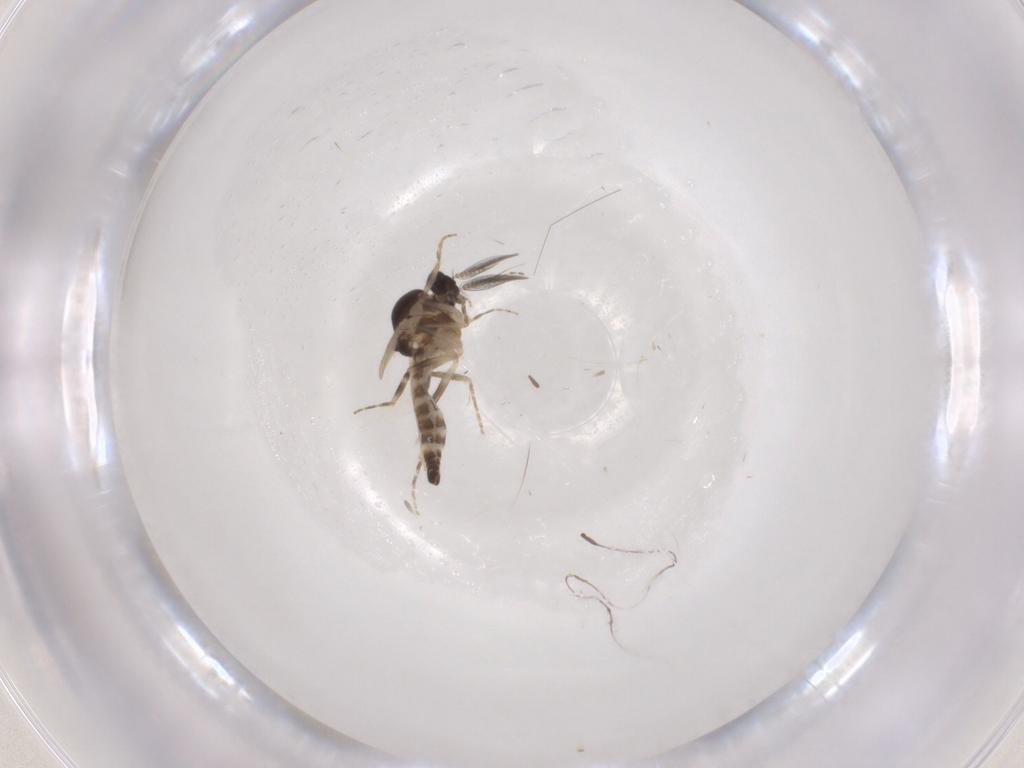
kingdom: Animalia
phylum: Arthropoda
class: Insecta
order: Diptera
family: Ceratopogonidae
